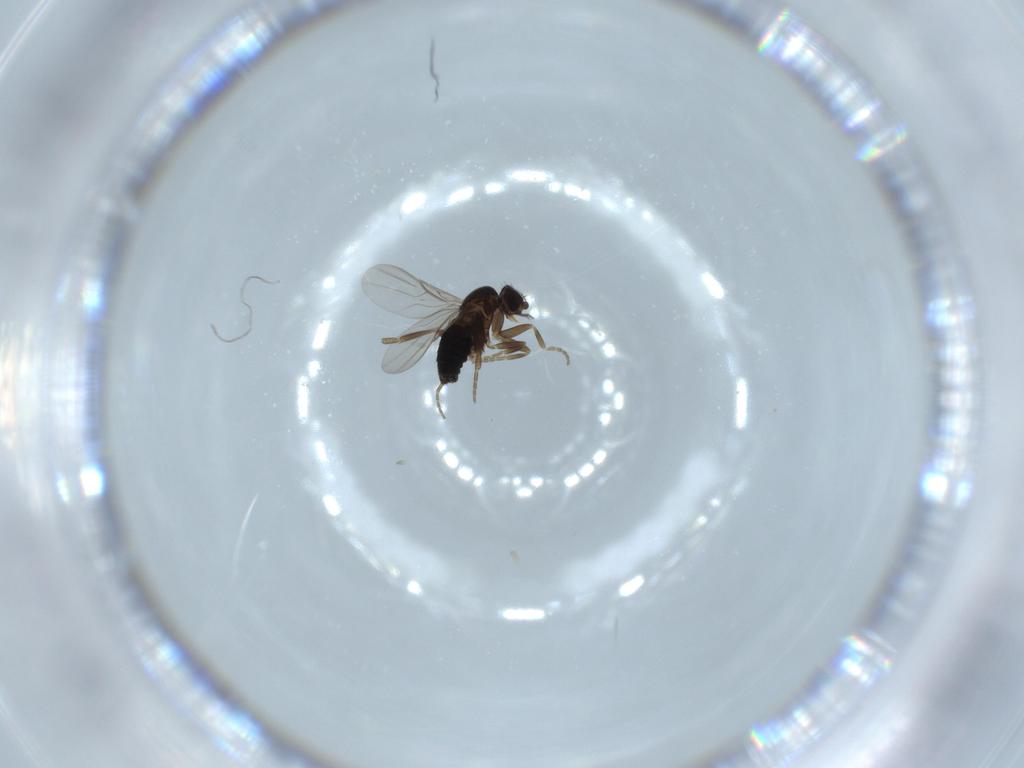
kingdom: Animalia
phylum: Arthropoda
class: Insecta
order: Diptera
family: Phoridae
